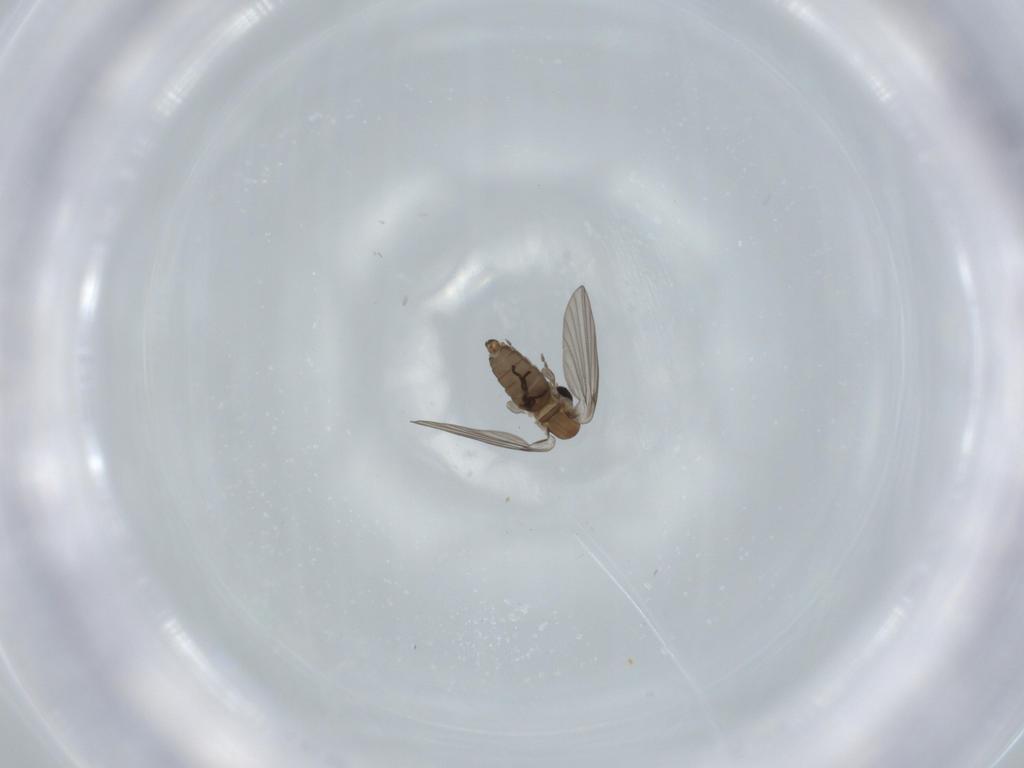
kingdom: Animalia
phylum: Arthropoda
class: Insecta
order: Diptera
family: Psychodidae
